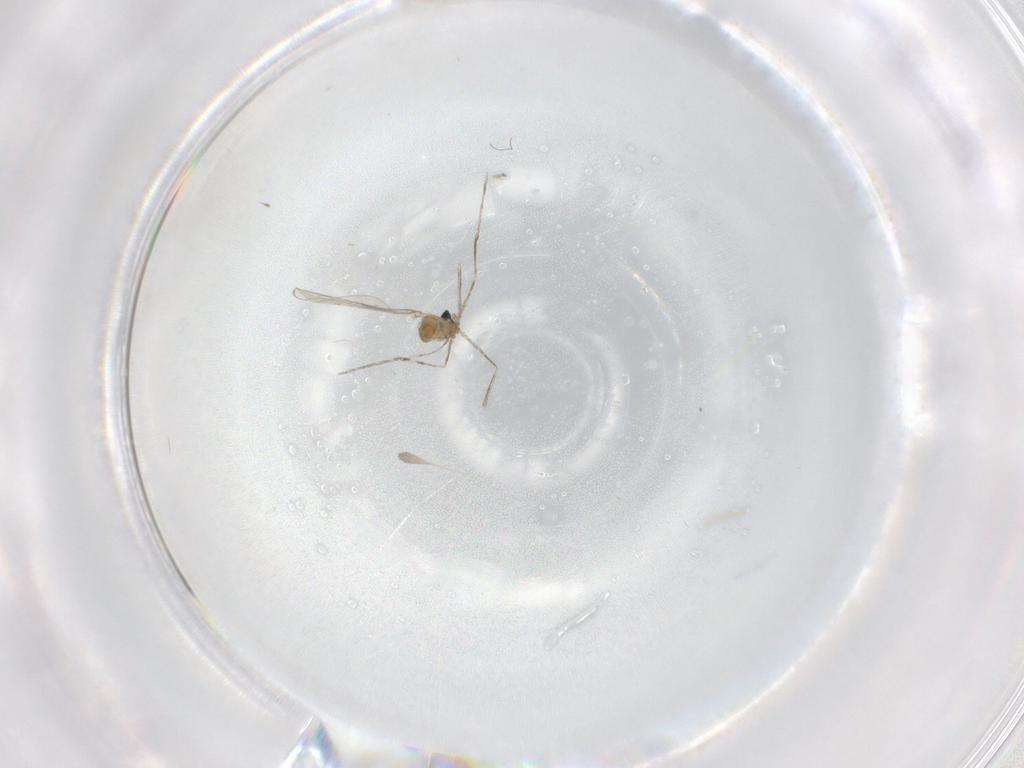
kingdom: Animalia
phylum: Arthropoda
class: Insecta
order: Diptera
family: Cecidomyiidae
